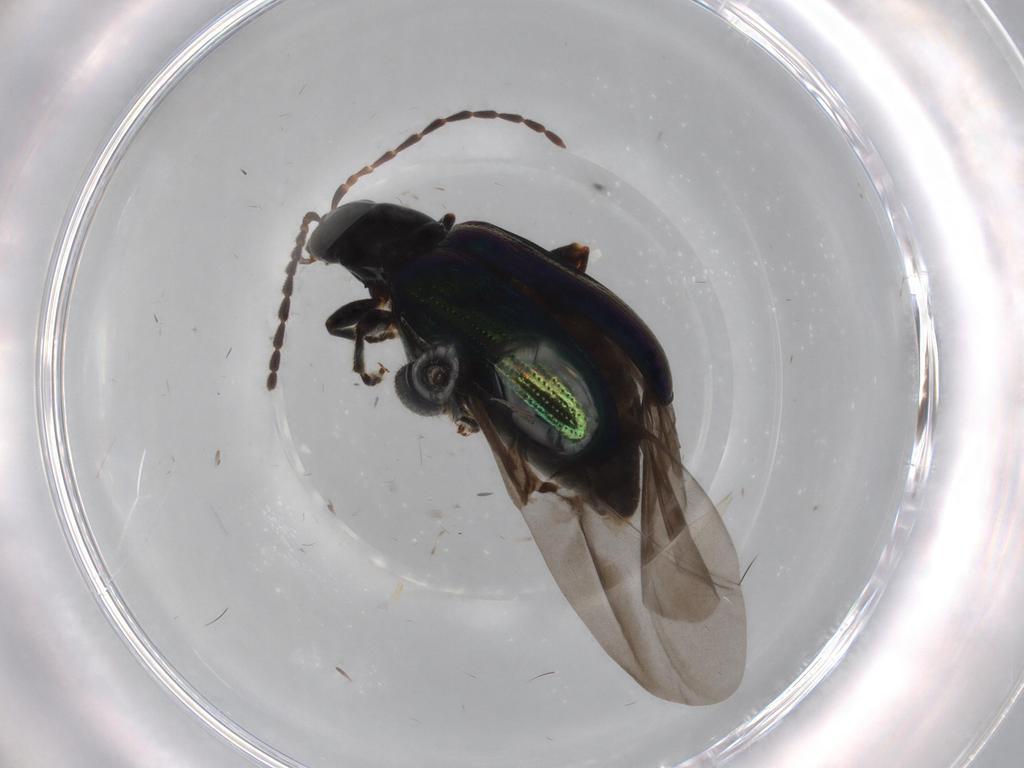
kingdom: Animalia
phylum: Arthropoda
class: Insecta
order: Coleoptera
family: Chrysomelidae
